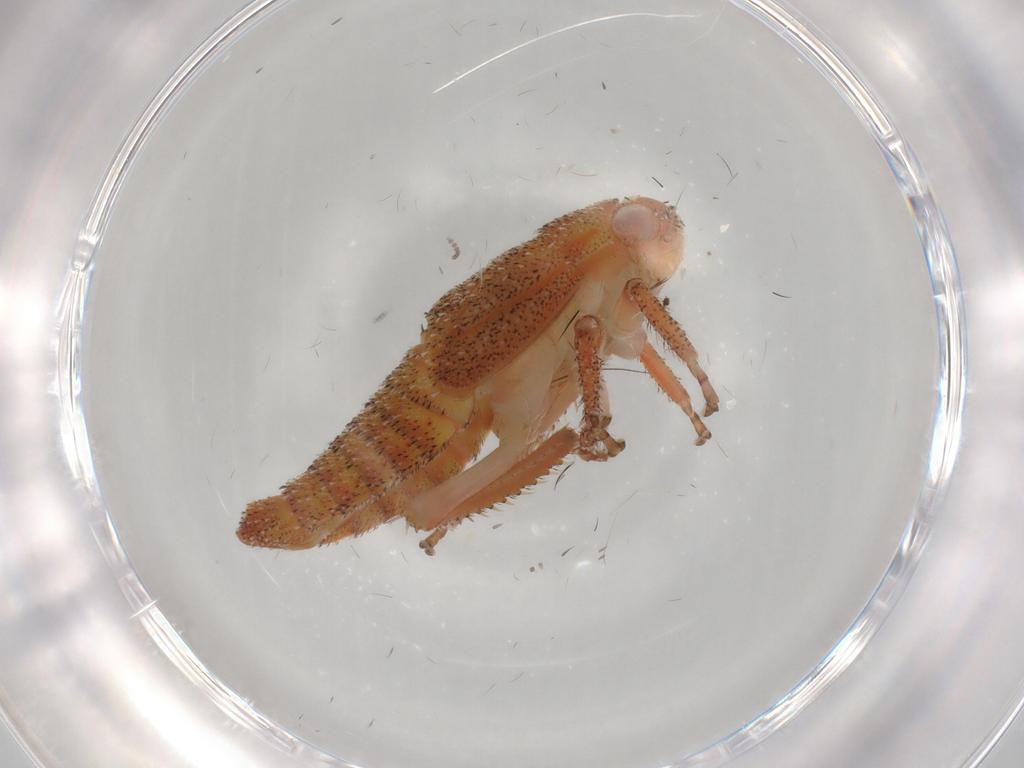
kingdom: Animalia
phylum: Arthropoda
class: Insecta
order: Hemiptera
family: Cicadellidae
